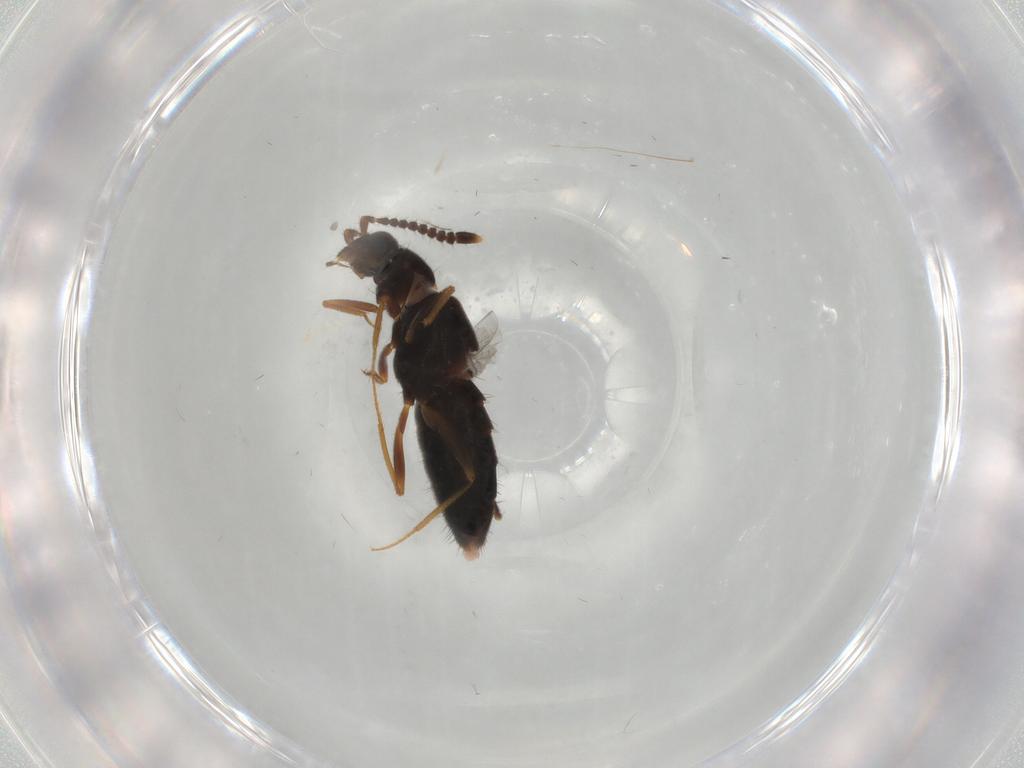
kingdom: Animalia
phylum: Arthropoda
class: Insecta
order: Coleoptera
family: Staphylinidae
